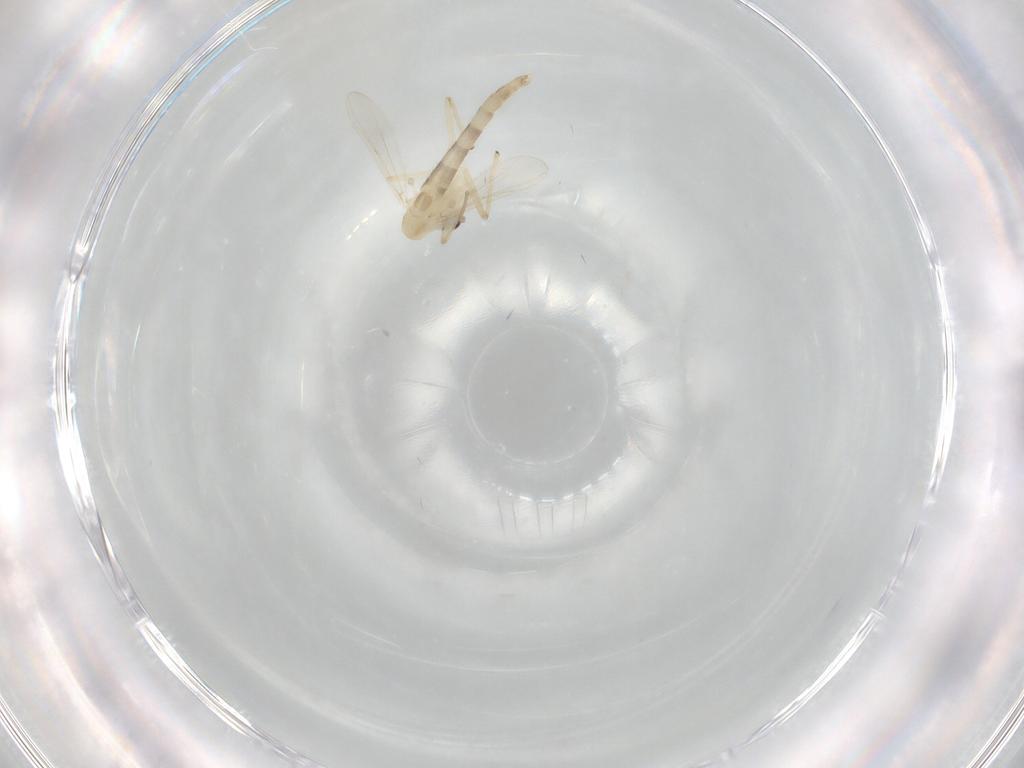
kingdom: Animalia
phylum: Arthropoda
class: Insecta
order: Diptera
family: Chironomidae
